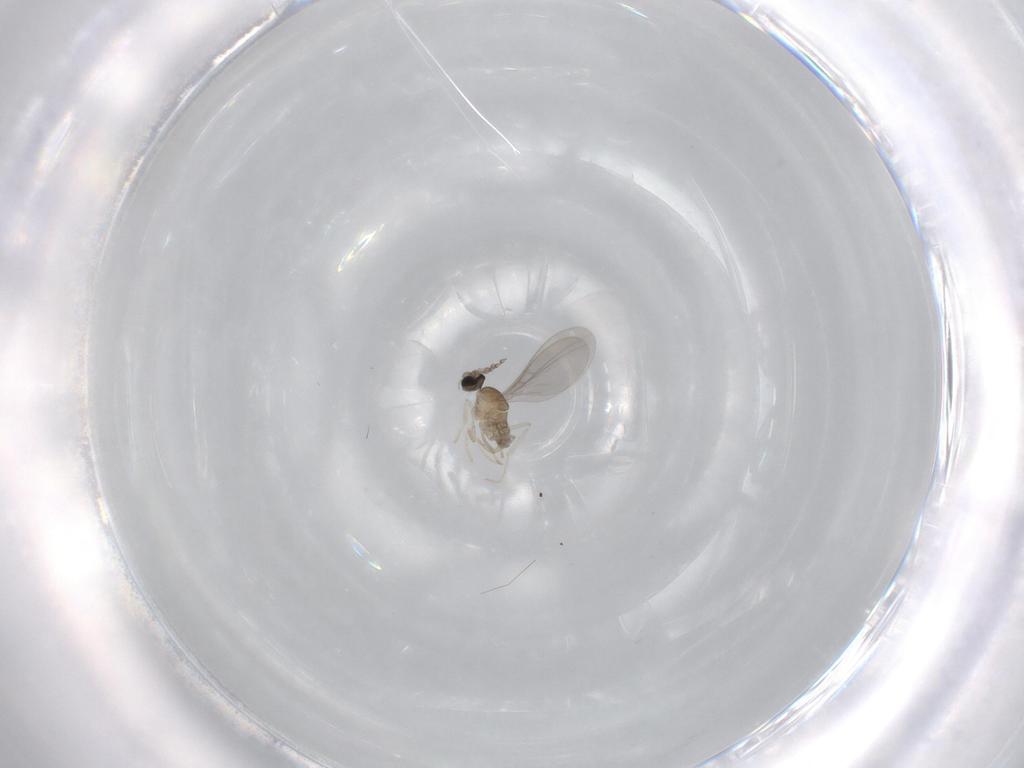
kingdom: Animalia
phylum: Arthropoda
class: Insecta
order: Diptera
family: Cecidomyiidae
